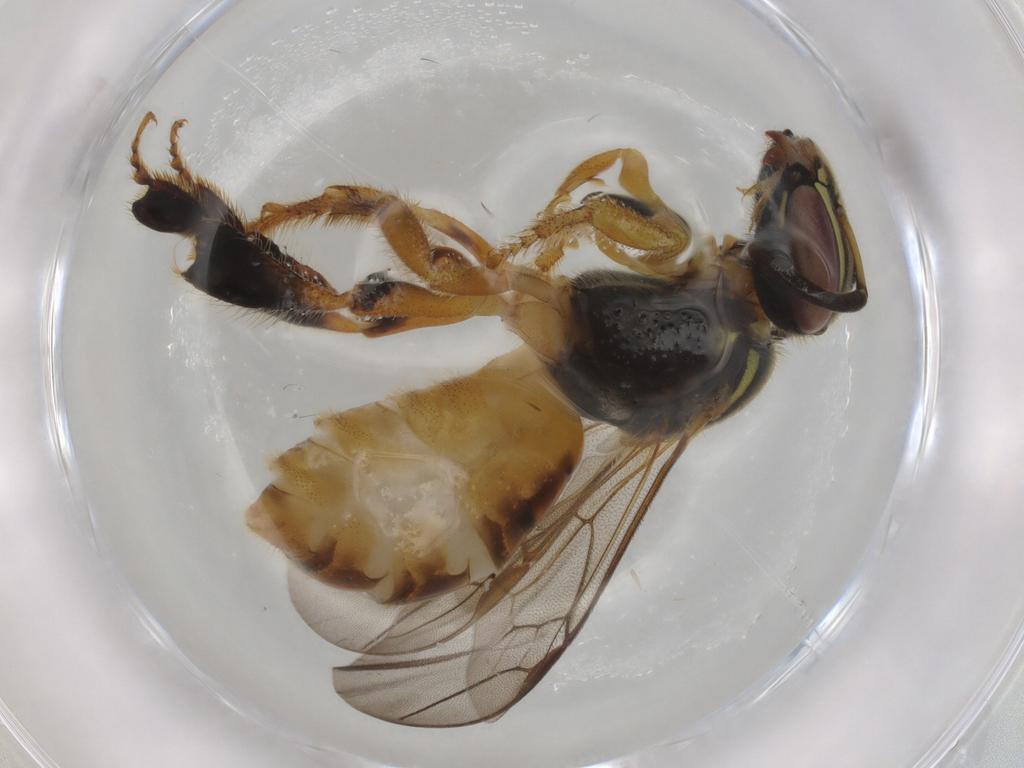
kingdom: Animalia
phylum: Arthropoda
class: Insecta
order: Hymenoptera
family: Apidae
